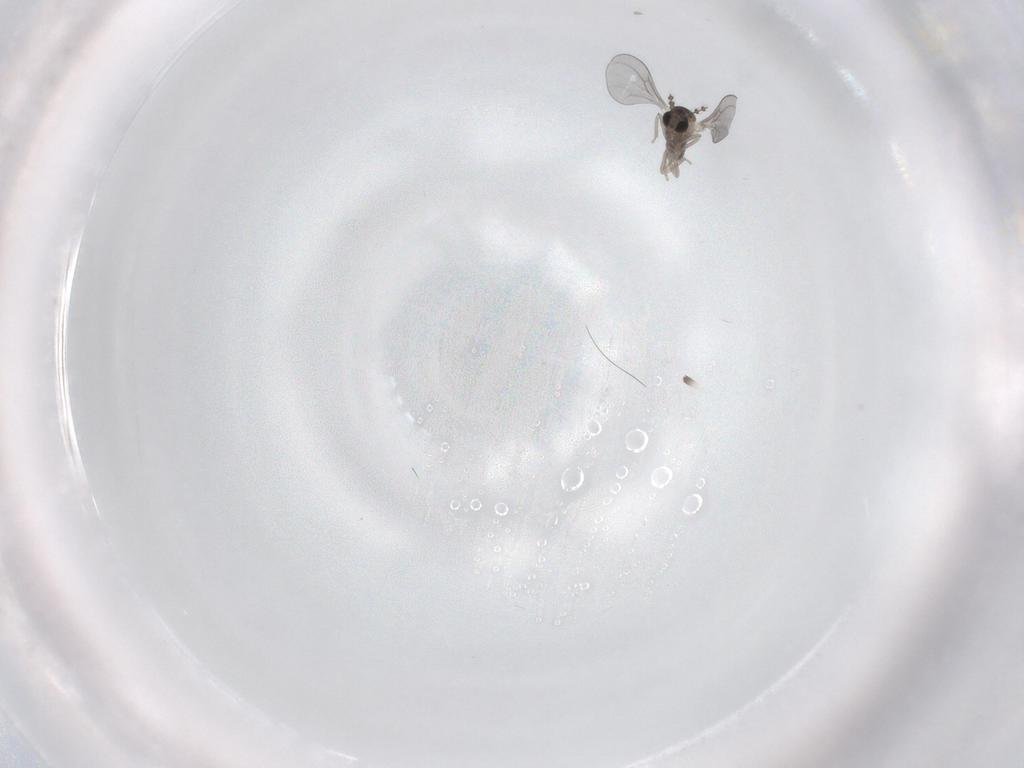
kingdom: Animalia
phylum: Arthropoda
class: Insecta
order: Diptera
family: Cecidomyiidae
